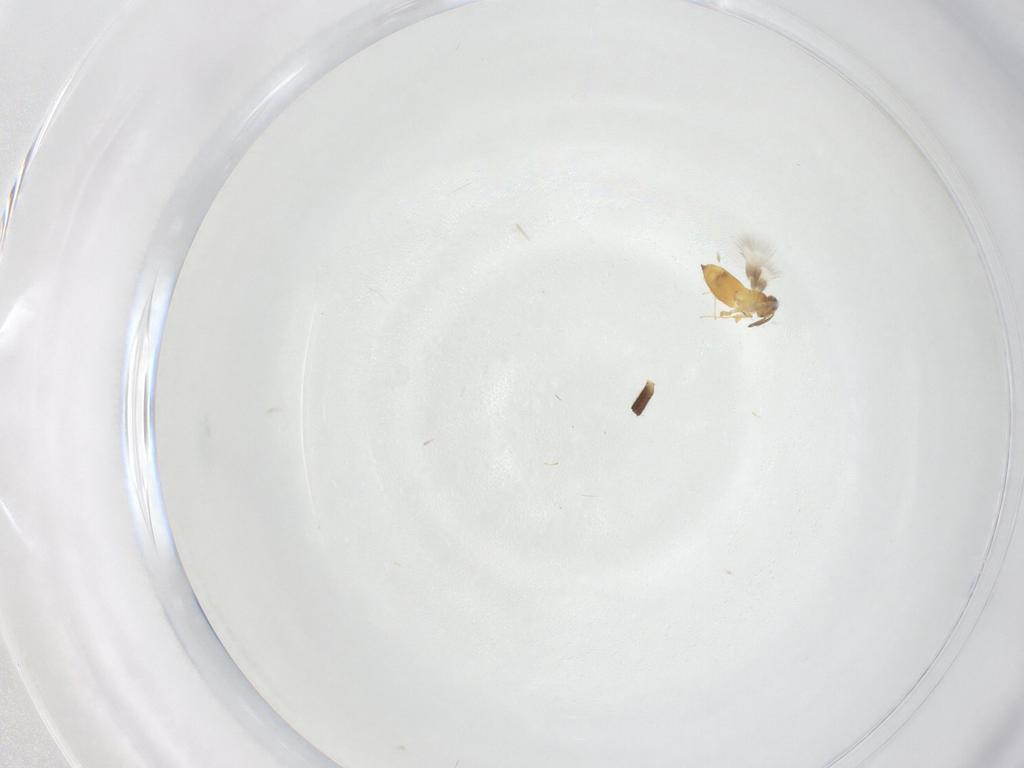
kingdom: Animalia
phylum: Arthropoda
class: Insecta
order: Hymenoptera
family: Signiphoridae
